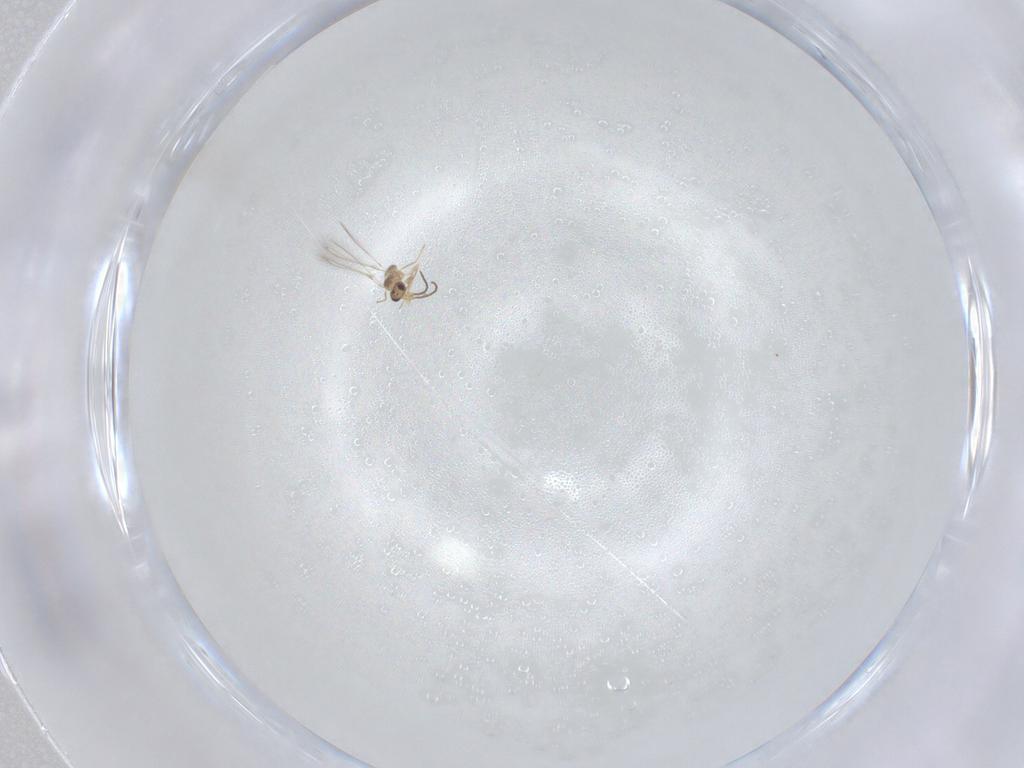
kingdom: Animalia
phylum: Arthropoda
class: Insecta
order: Hymenoptera
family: Mymaridae
